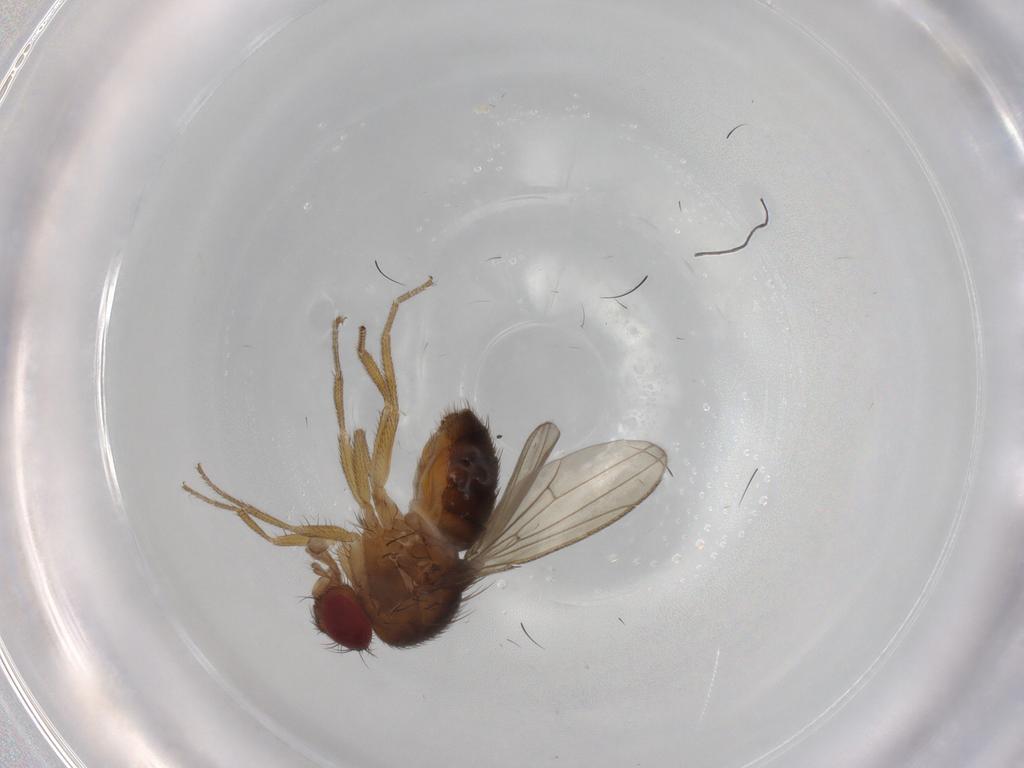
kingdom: Animalia
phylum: Arthropoda
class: Insecta
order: Diptera
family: Drosophilidae
